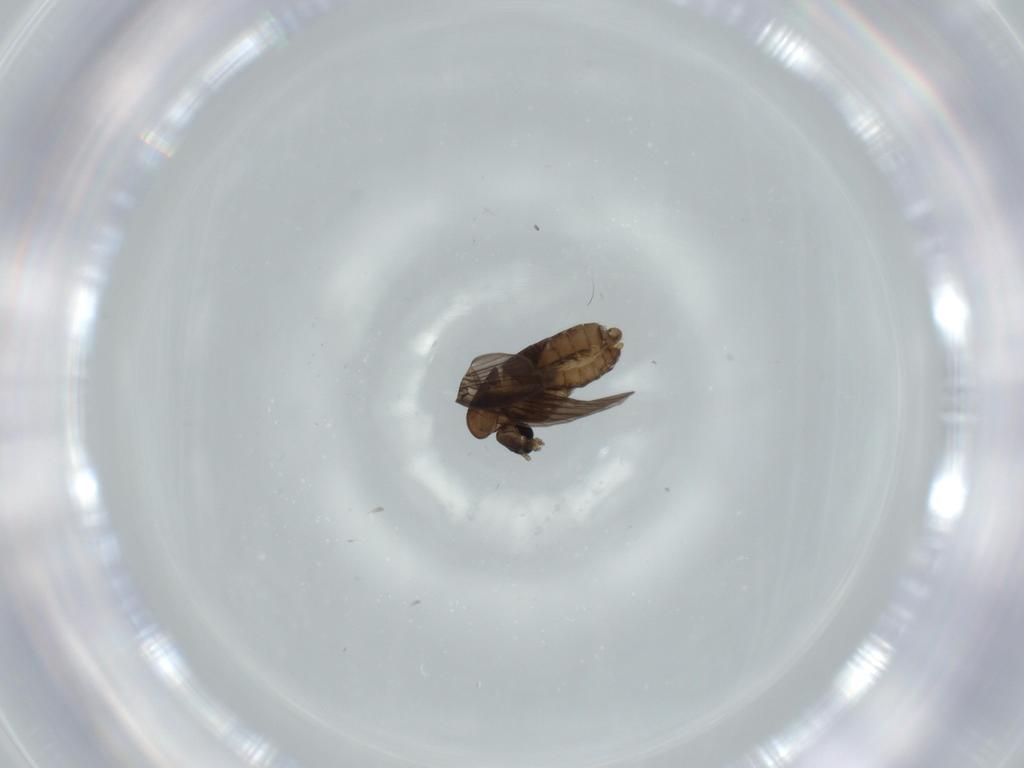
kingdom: Animalia
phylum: Arthropoda
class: Insecta
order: Diptera
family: Psychodidae
